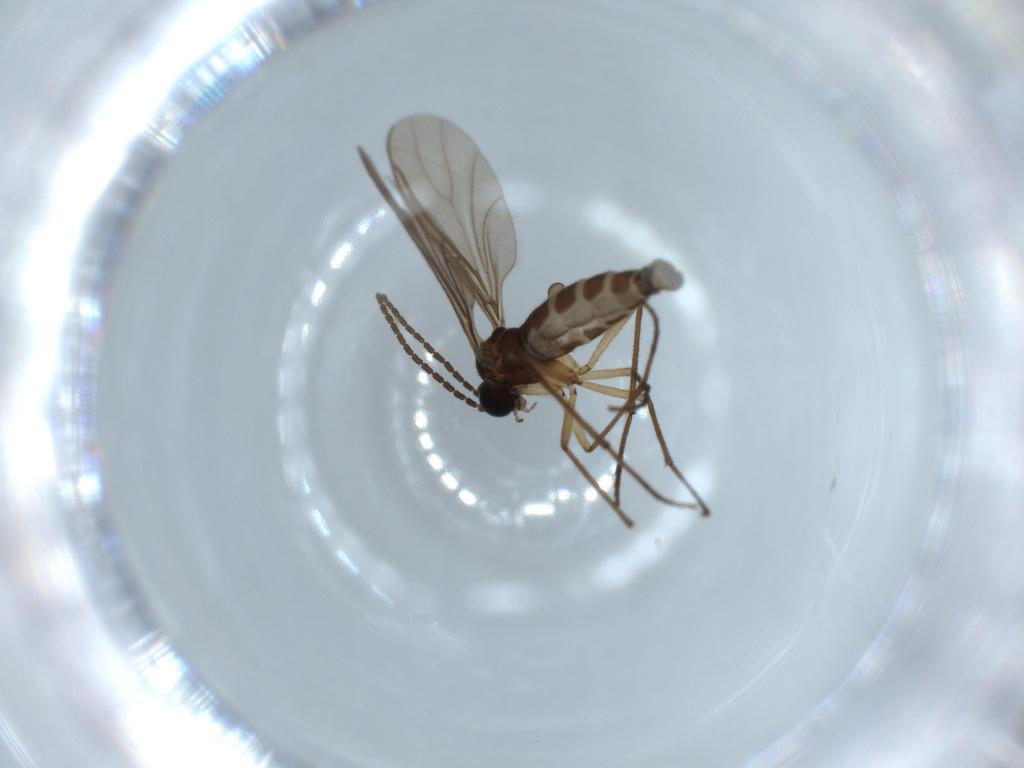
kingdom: Animalia
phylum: Arthropoda
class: Insecta
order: Diptera
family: Sciaridae
